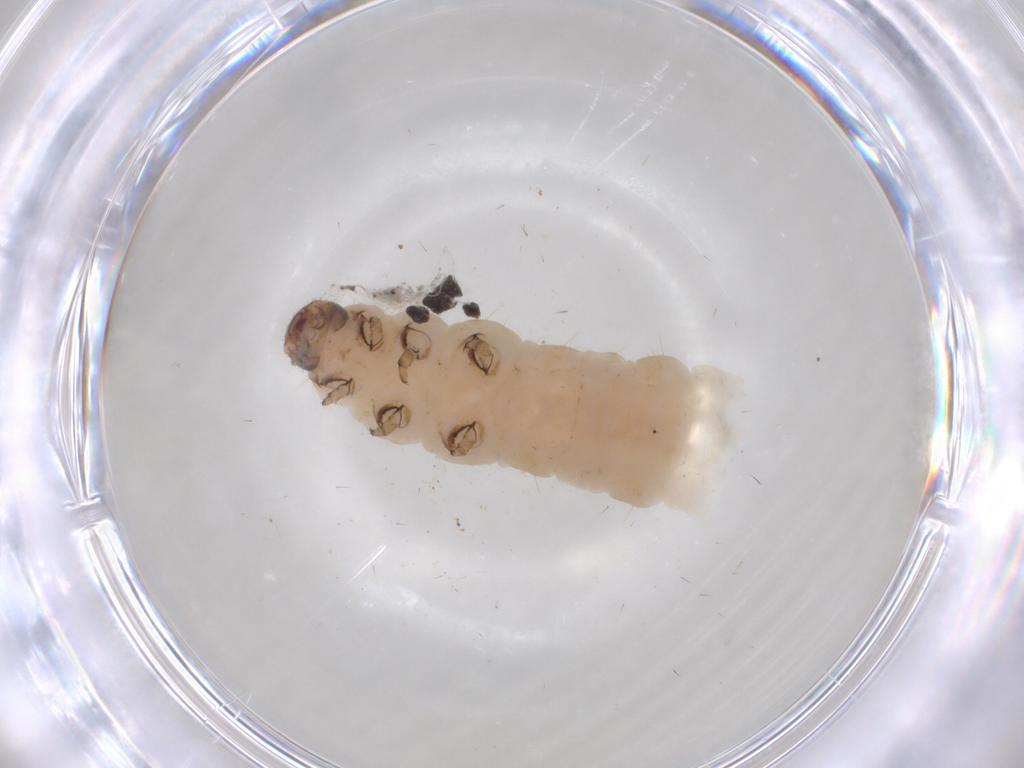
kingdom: Animalia
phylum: Arthropoda
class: Insecta
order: Coleoptera
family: Chrysomelidae
